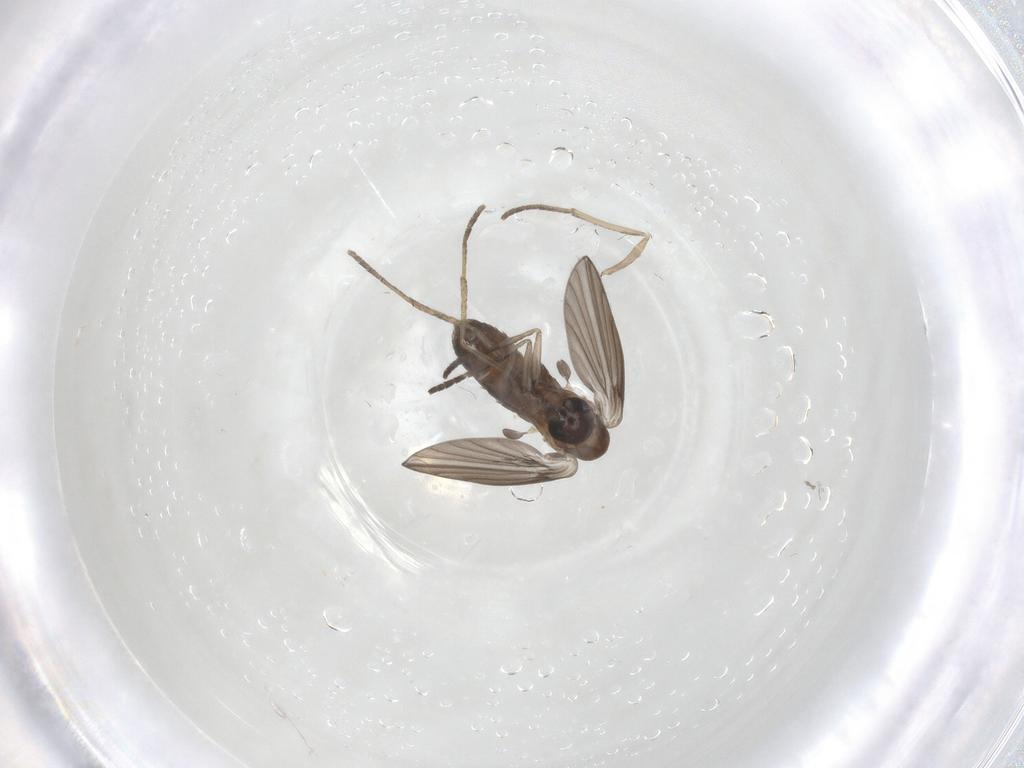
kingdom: Animalia
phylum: Arthropoda
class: Insecta
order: Diptera
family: Psychodidae
